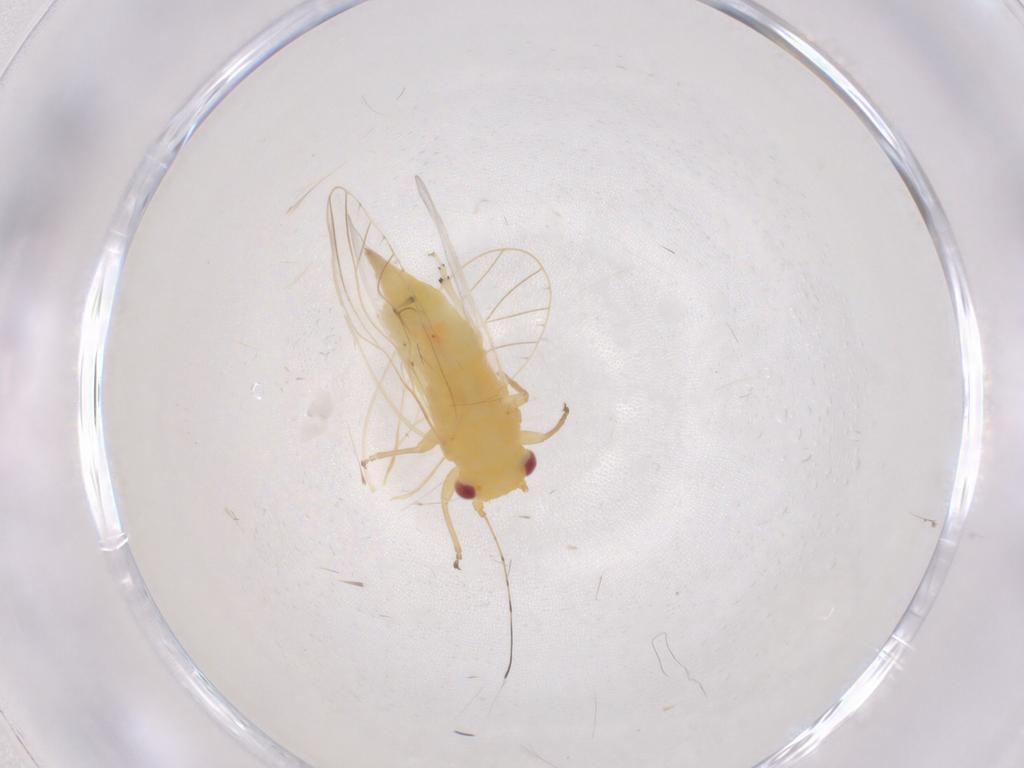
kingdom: Animalia
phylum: Arthropoda
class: Insecta
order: Hemiptera
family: Psyllidae
